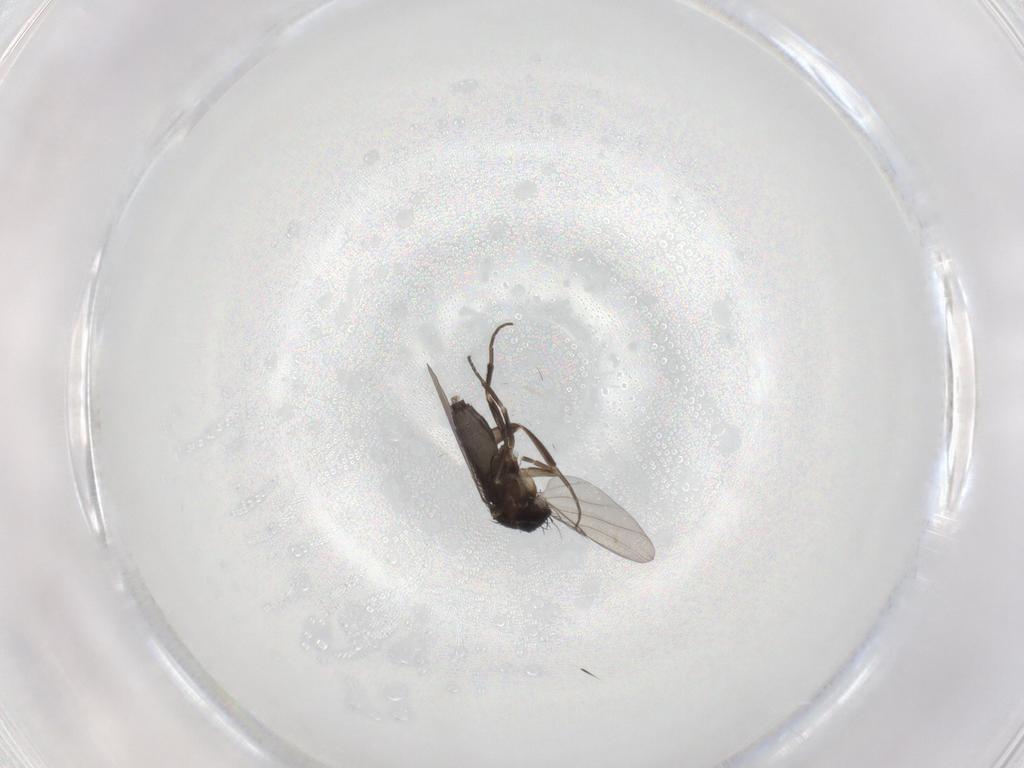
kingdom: Animalia
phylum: Arthropoda
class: Insecta
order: Diptera
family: Phoridae
